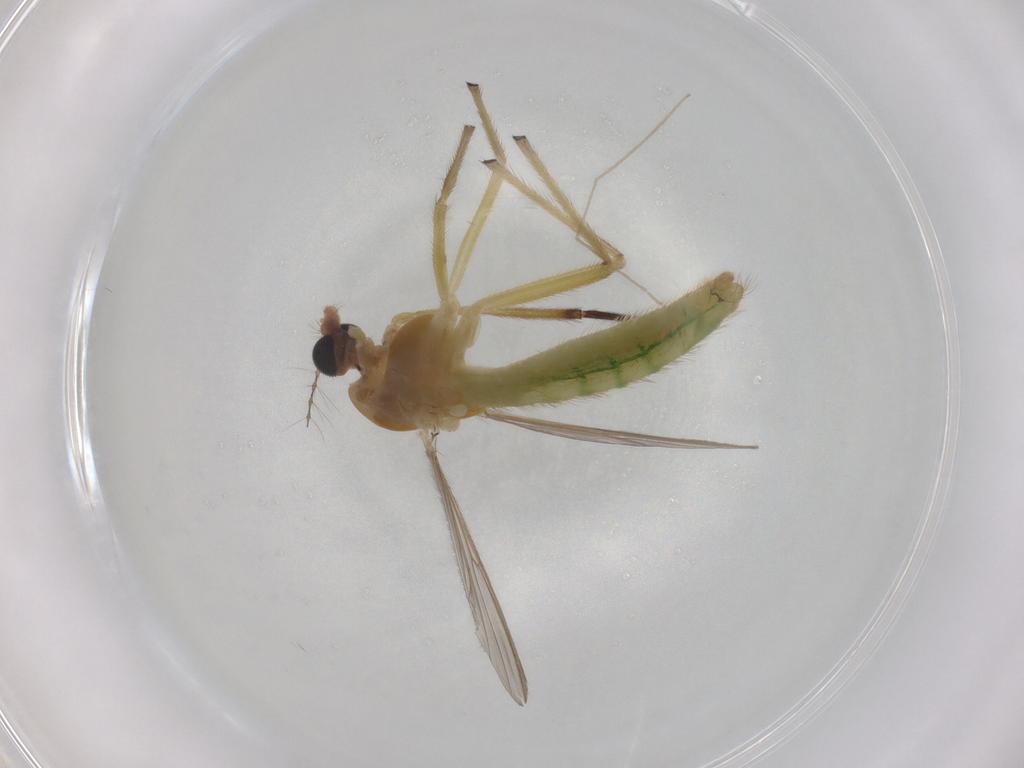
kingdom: Animalia
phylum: Arthropoda
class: Insecta
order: Diptera
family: Chironomidae
